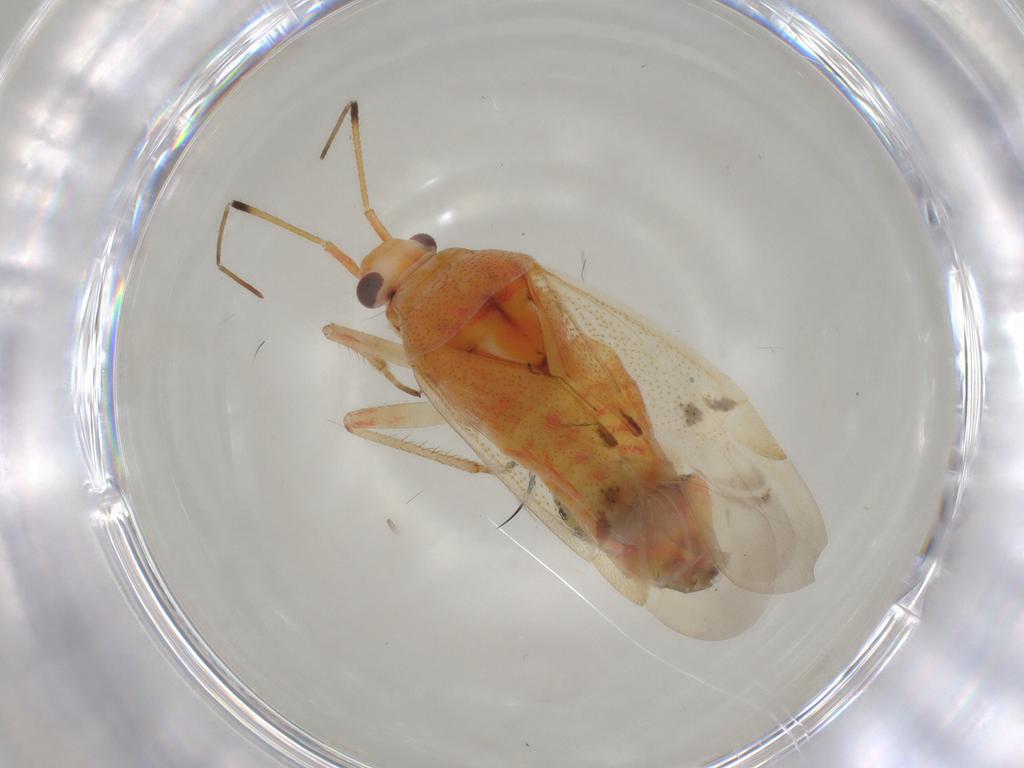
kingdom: Animalia
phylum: Arthropoda
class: Insecta
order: Hemiptera
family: Miridae
